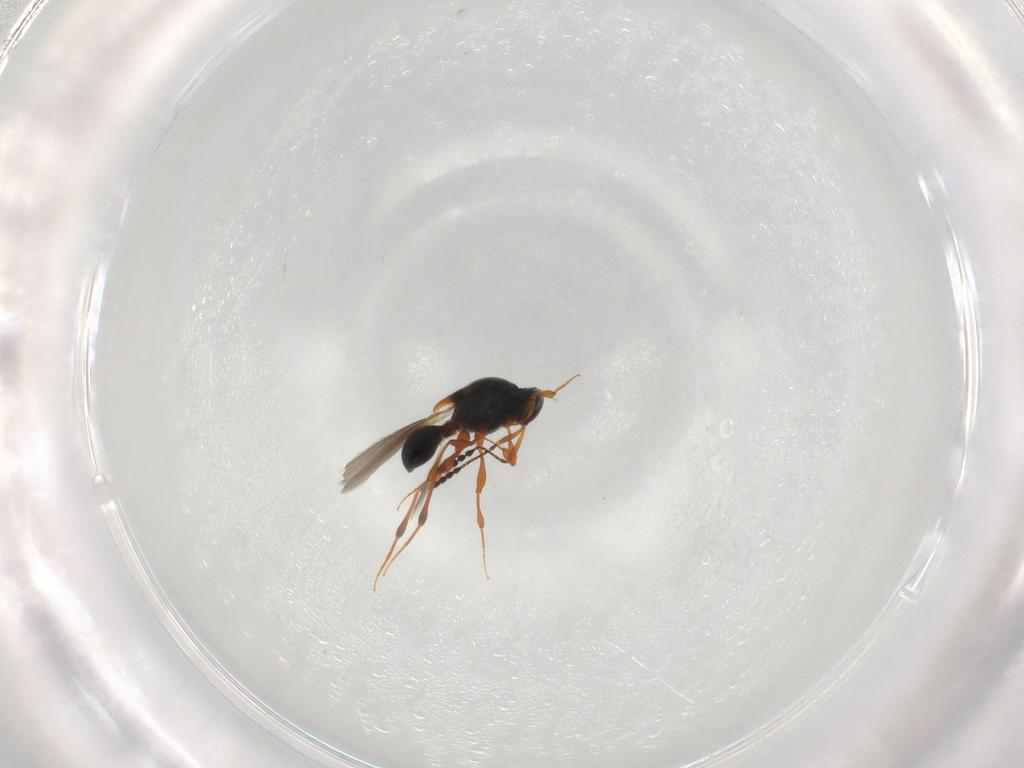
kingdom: Animalia
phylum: Arthropoda
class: Insecta
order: Hymenoptera
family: Platygastridae
